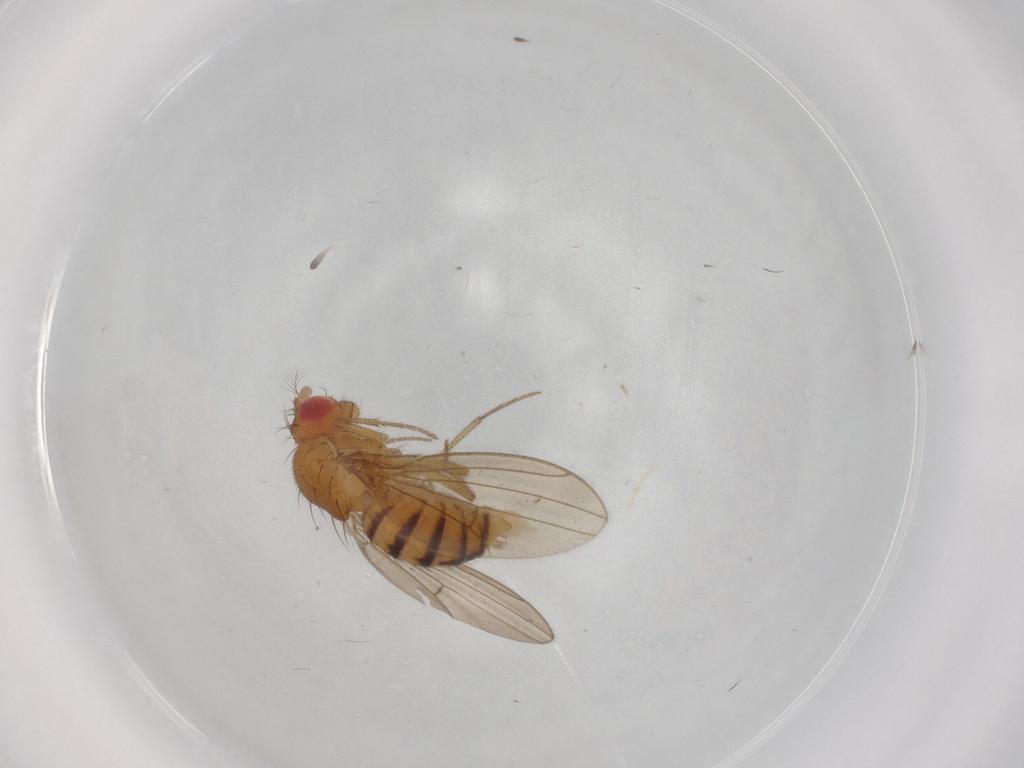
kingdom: Animalia
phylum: Arthropoda
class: Insecta
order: Diptera
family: Drosophilidae
